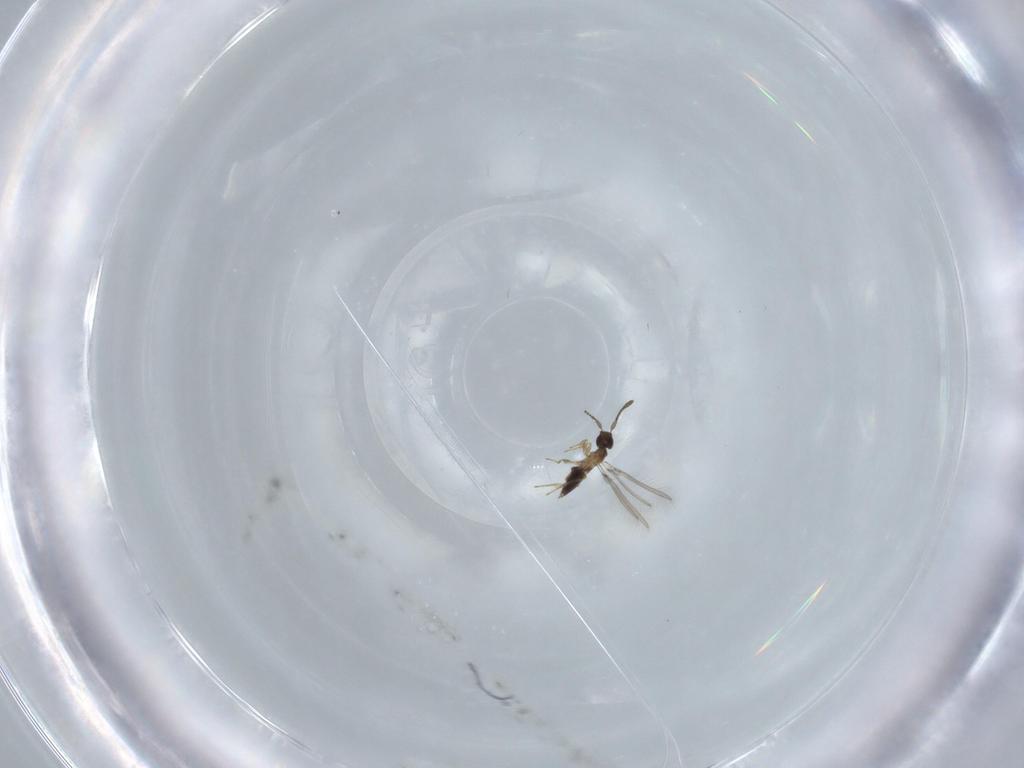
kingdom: Animalia
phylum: Arthropoda
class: Insecta
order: Hymenoptera
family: Mymaridae
